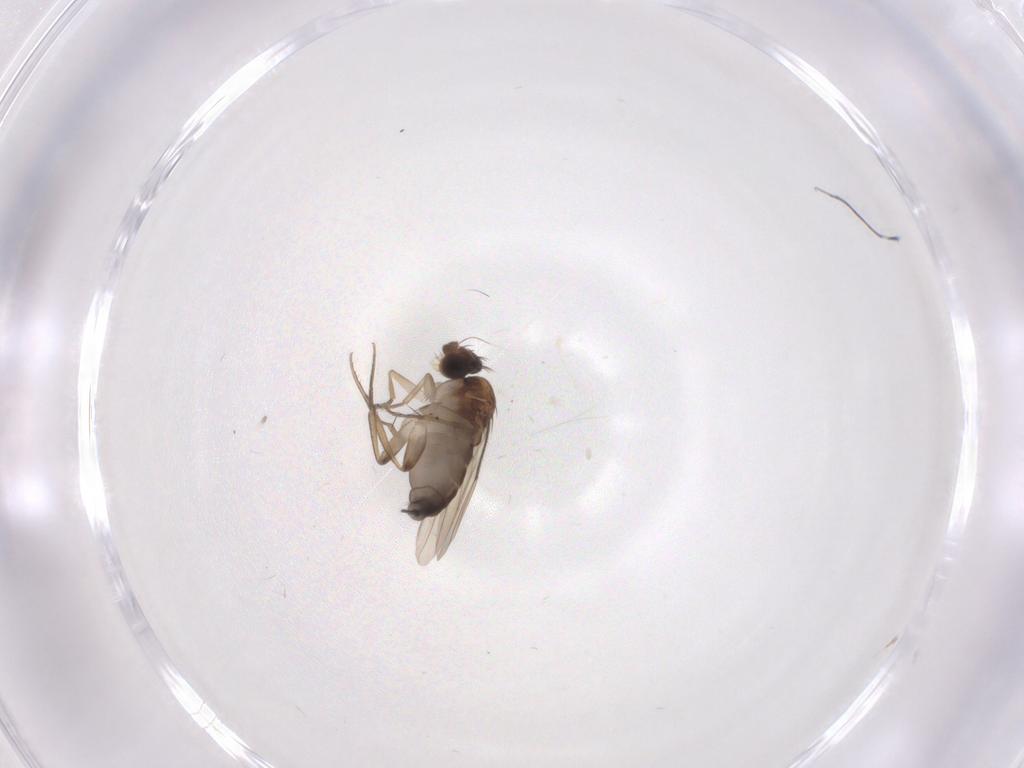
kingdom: Animalia
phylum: Arthropoda
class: Insecta
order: Diptera
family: Phoridae
